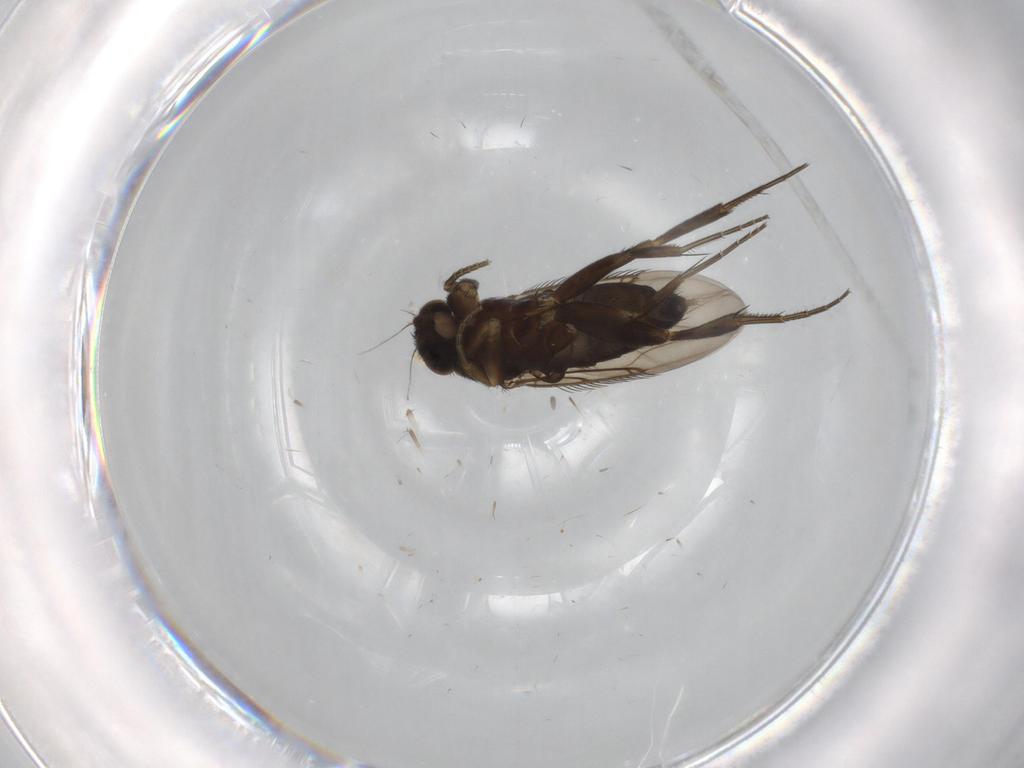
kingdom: Animalia
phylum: Arthropoda
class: Insecta
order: Diptera
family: Phoridae
